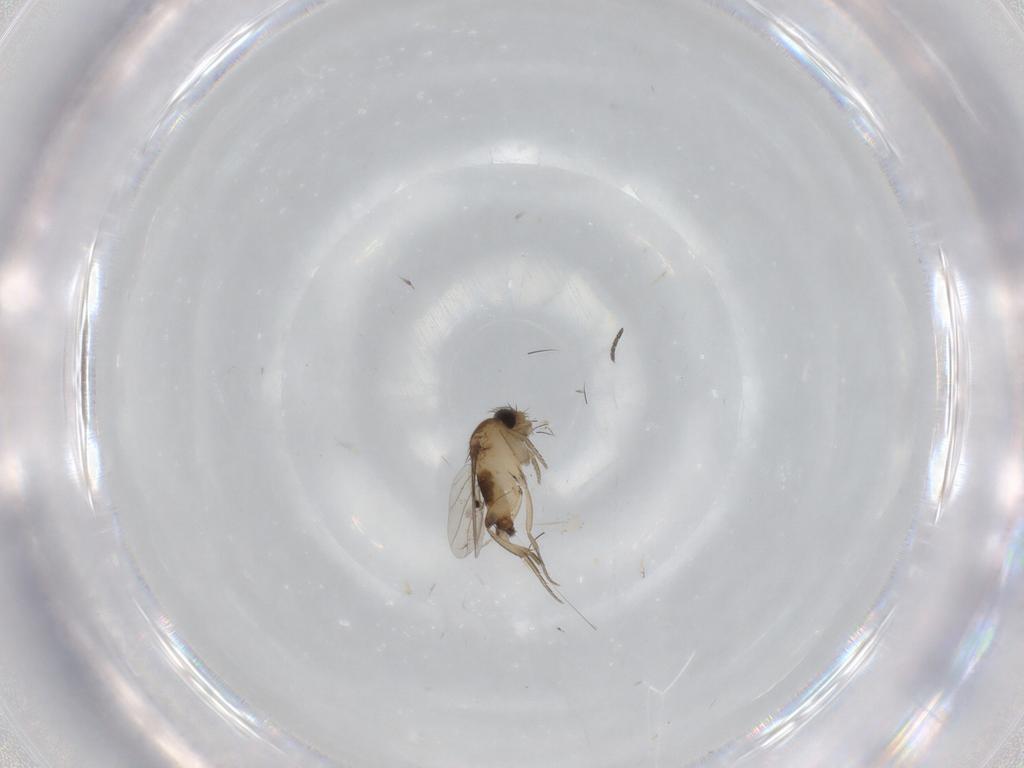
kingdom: Animalia
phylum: Arthropoda
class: Insecta
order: Diptera
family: Phoridae
